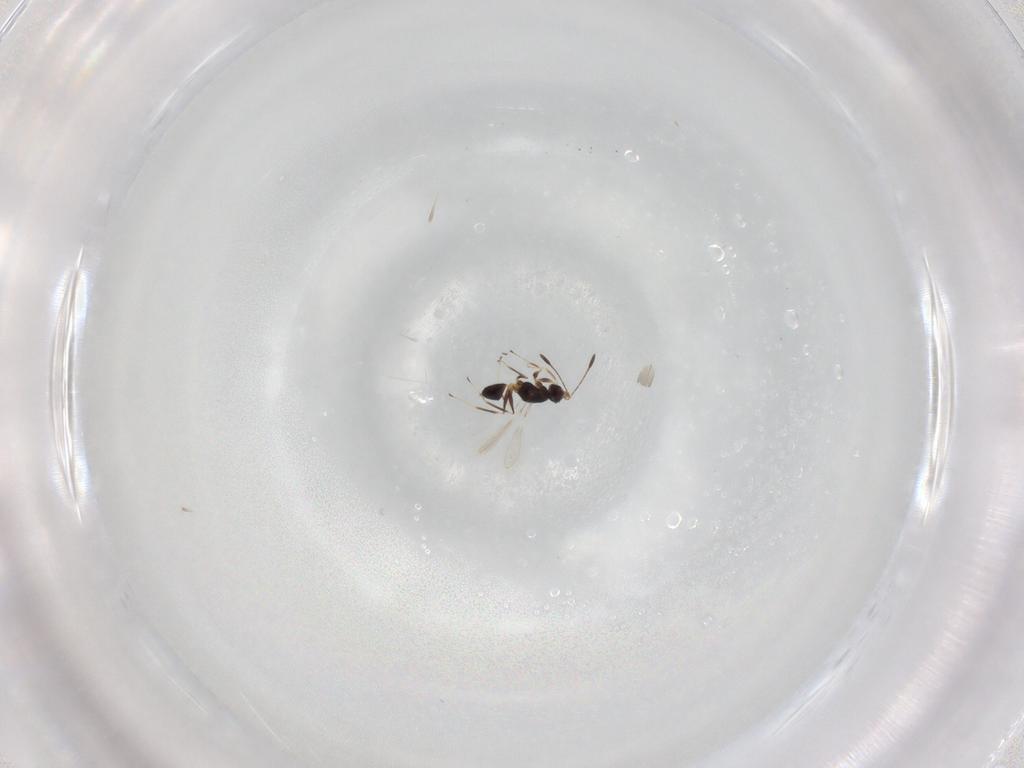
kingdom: Animalia
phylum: Arthropoda
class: Insecta
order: Hymenoptera
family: Mymaridae
